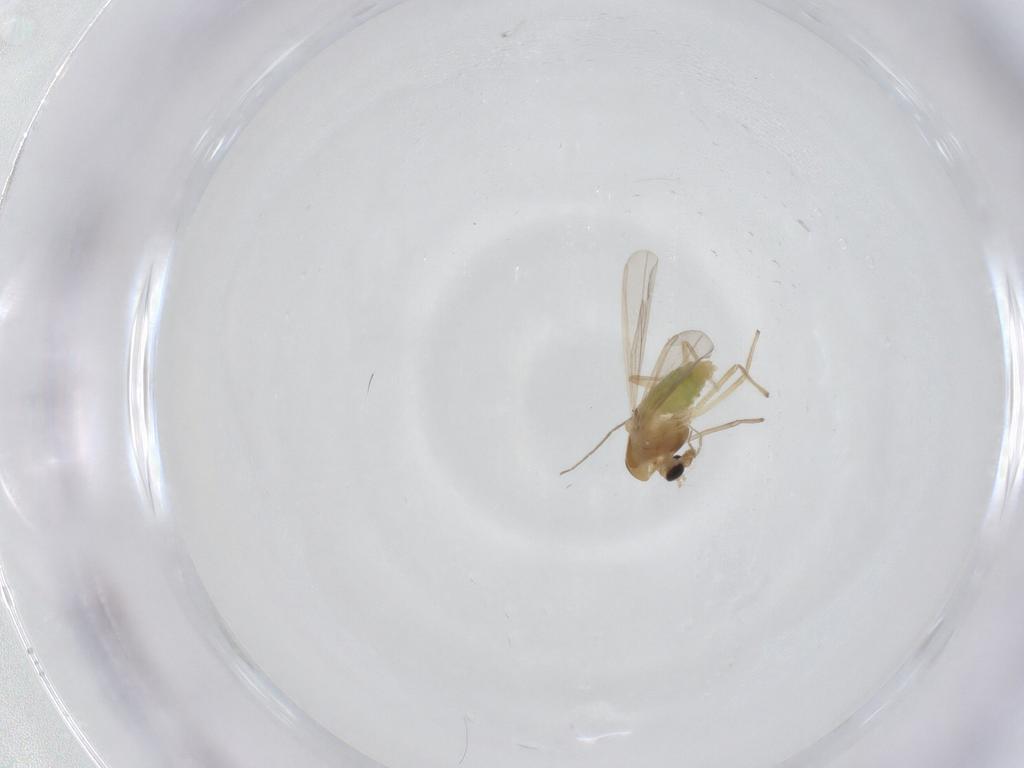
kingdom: Animalia
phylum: Arthropoda
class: Insecta
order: Diptera
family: Chironomidae
